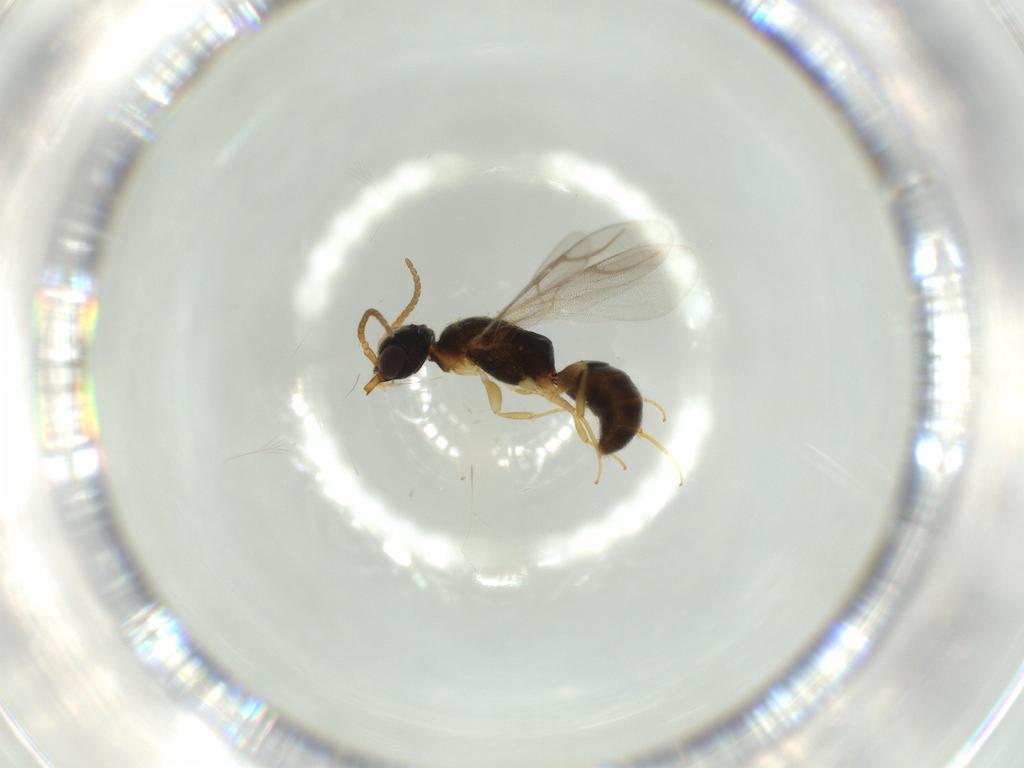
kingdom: Animalia
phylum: Arthropoda
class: Insecta
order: Hymenoptera
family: Bethylidae
